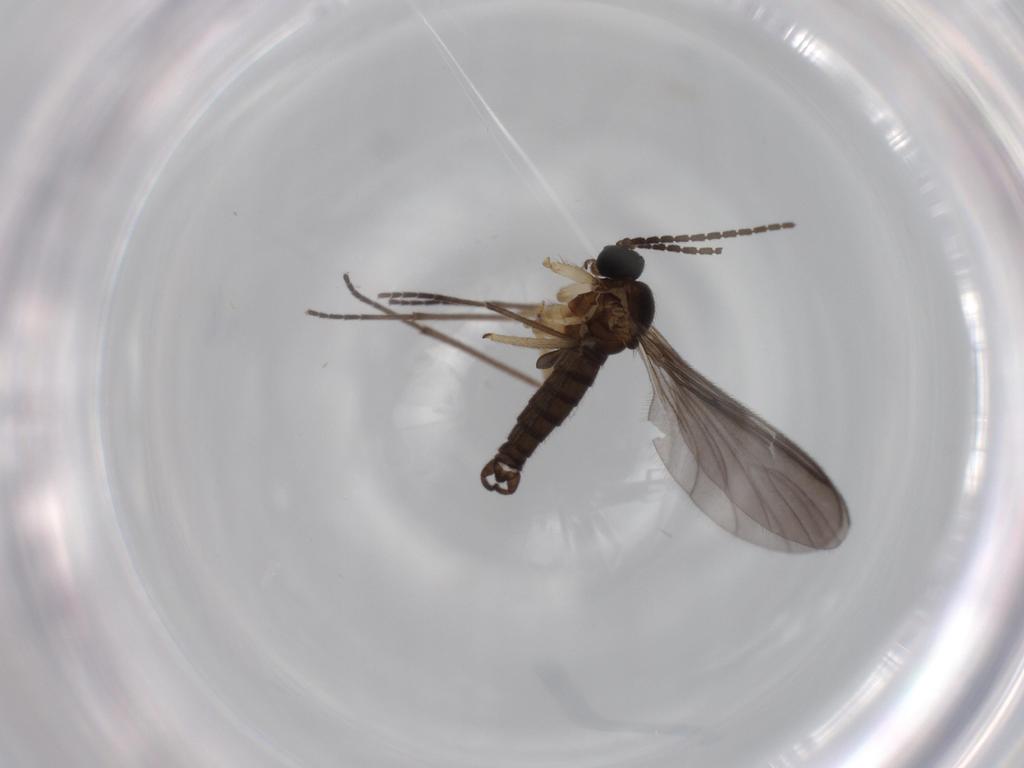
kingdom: Animalia
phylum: Arthropoda
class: Insecta
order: Diptera
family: Sciaridae
